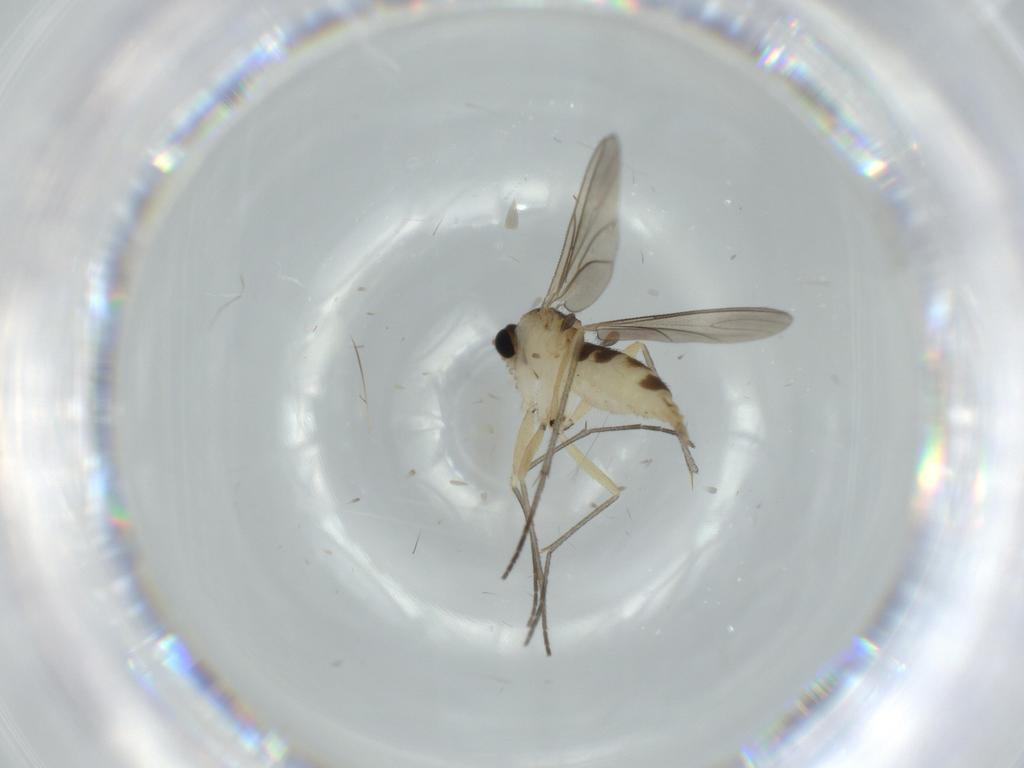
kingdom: Animalia
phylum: Arthropoda
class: Insecta
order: Diptera
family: Sciaridae
